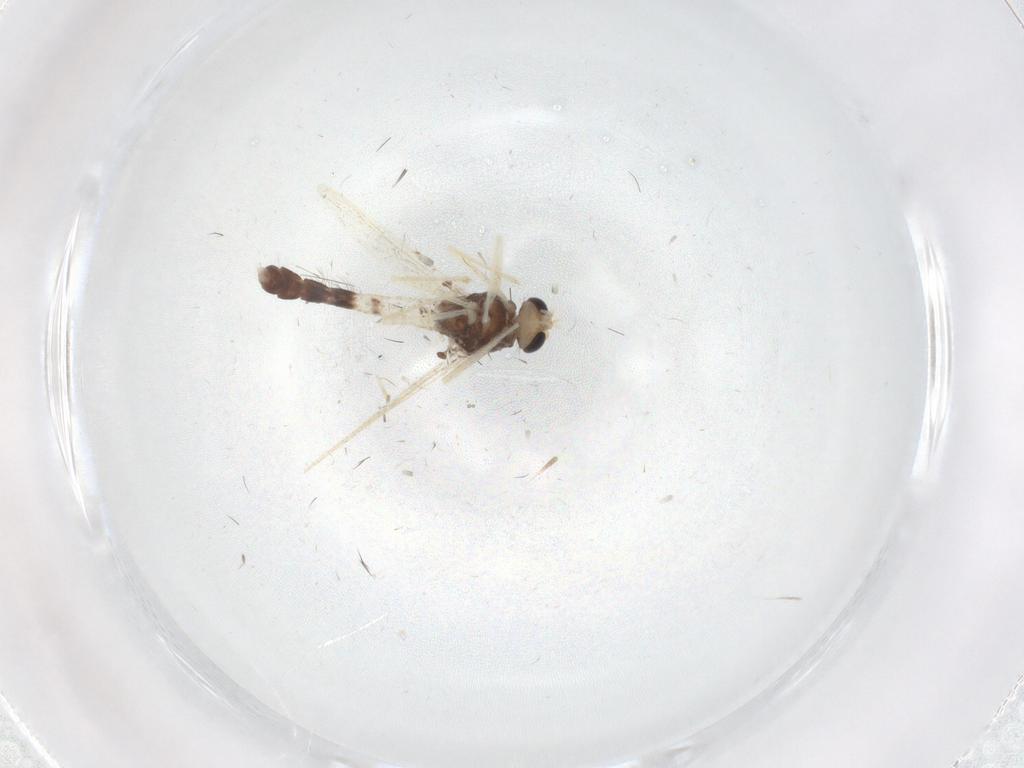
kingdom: Animalia
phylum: Arthropoda
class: Insecta
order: Diptera
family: Chironomidae
